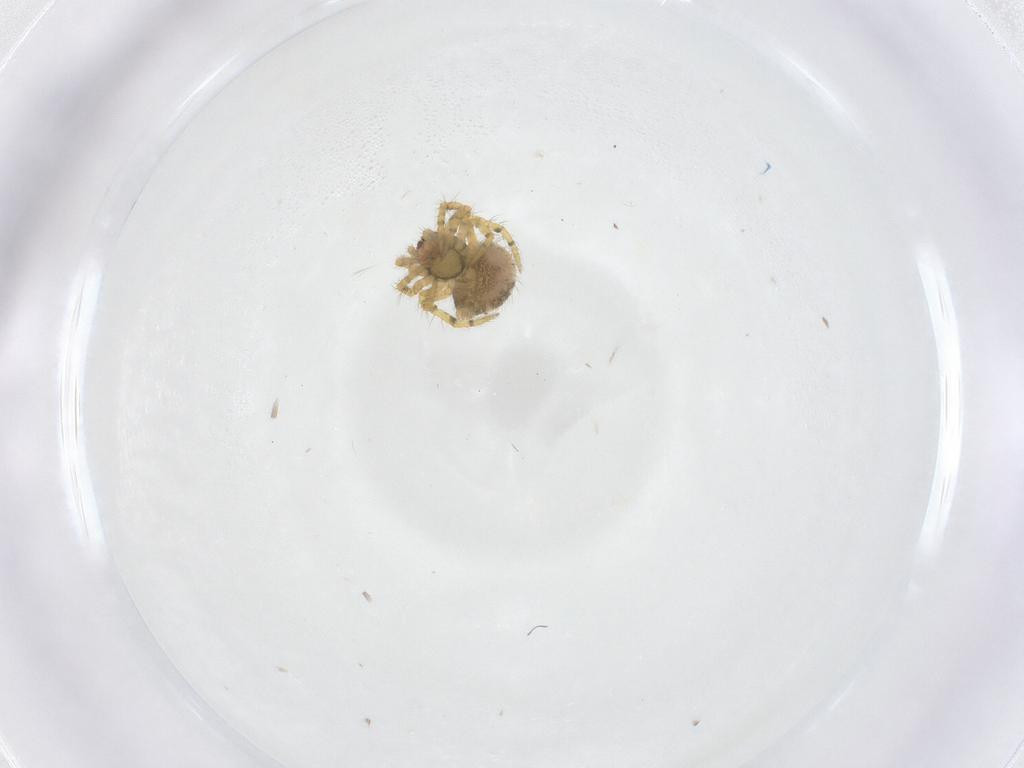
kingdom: Animalia
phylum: Arthropoda
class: Arachnida
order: Araneae
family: Theridiidae
